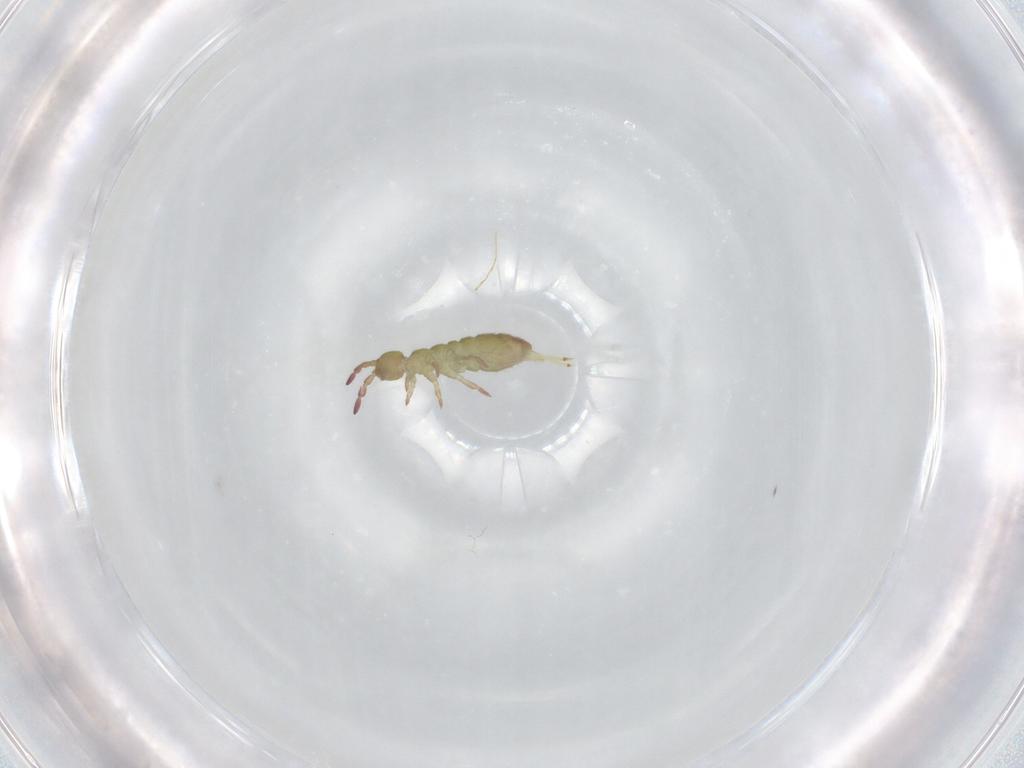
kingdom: Animalia
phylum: Arthropoda
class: Collembola
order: Entomobryomorpha
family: Isotomidae
